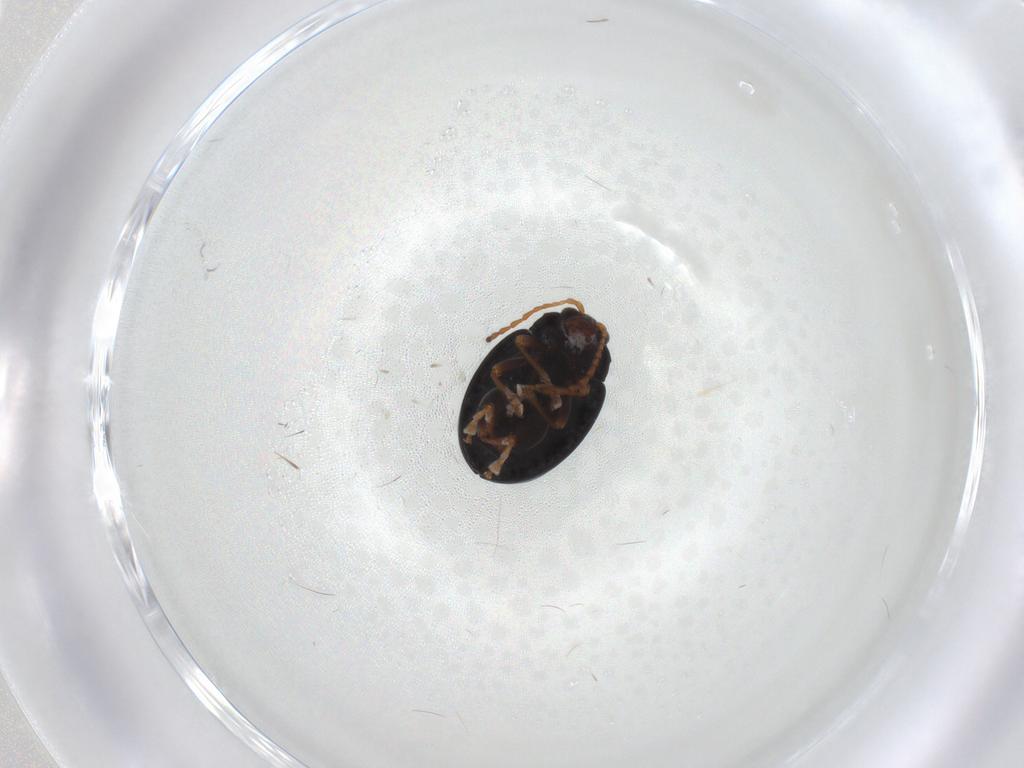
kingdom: Animalia
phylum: Arthropoda
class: Insecta
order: Coleoptera
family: Chrysomelidae
